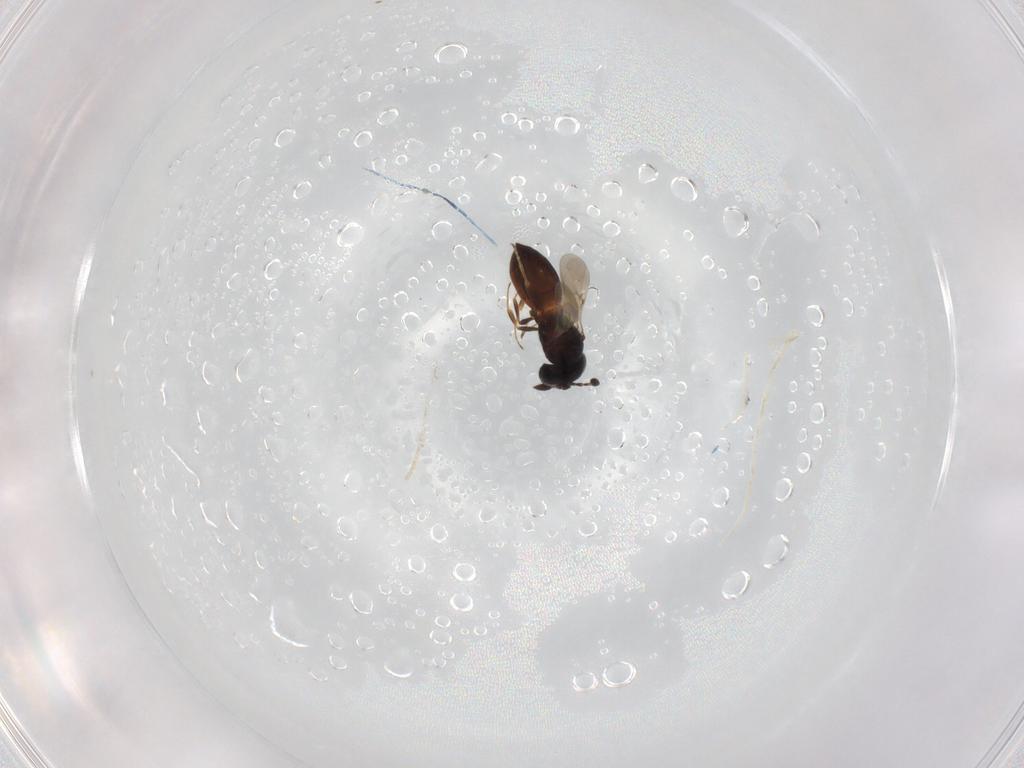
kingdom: Animalia
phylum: Arthropoda
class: Insecta
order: Hymenoptera
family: Scelionidae
